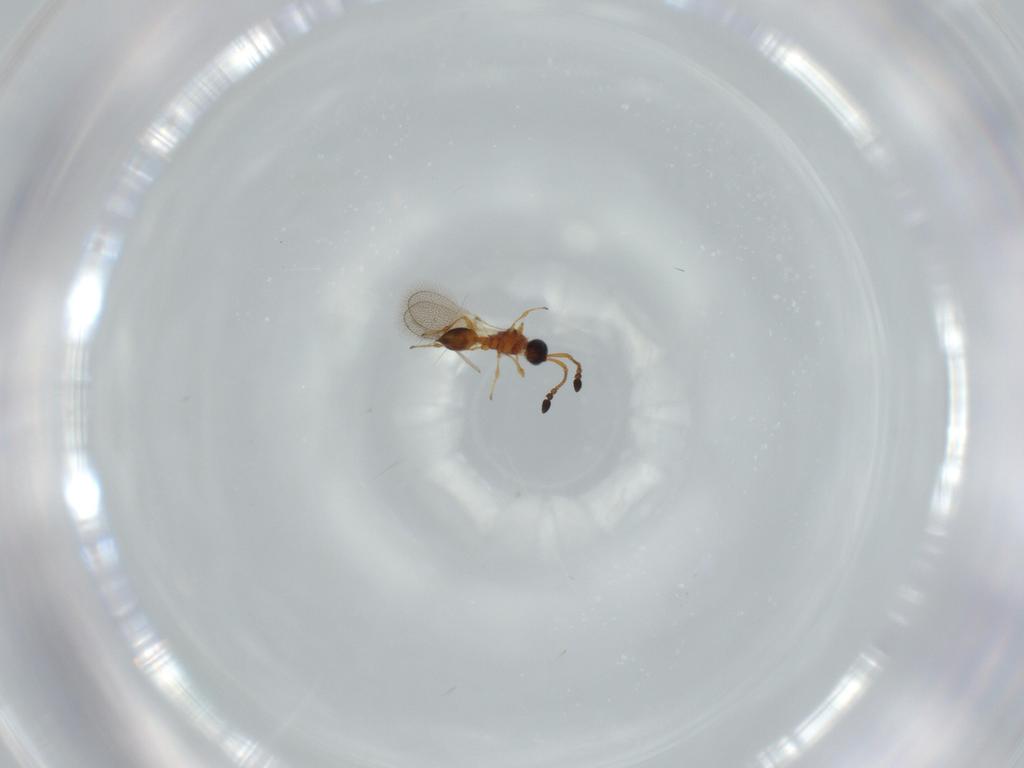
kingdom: Animalia
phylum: Arthropoda
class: Insecta
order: Hymenoptera
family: Diapriidae
